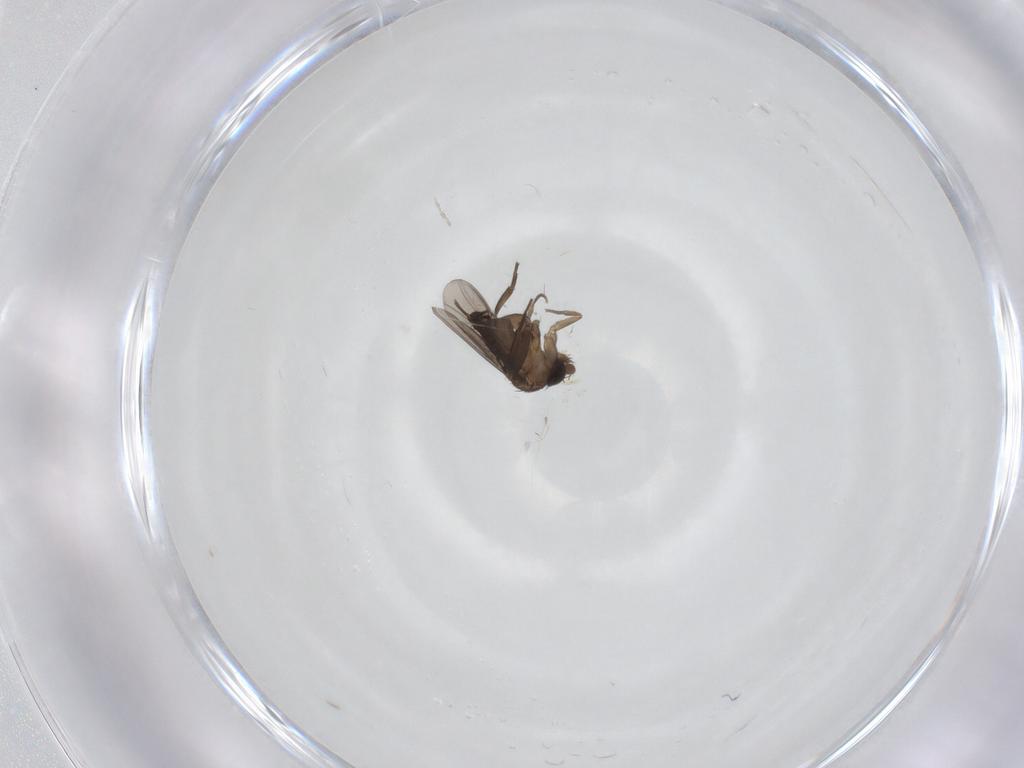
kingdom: Animalia
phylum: Arthropoda
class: Insecta
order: Diptera
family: Phoridae
